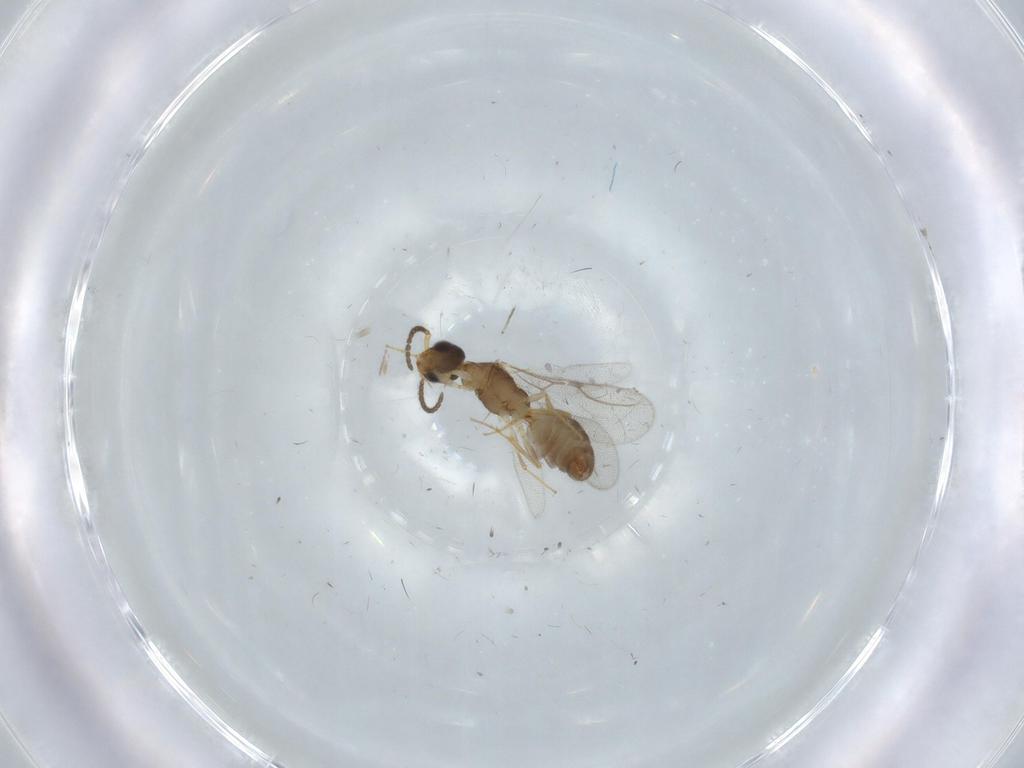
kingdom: Animalia
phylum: Arthropoda
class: Insecta
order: Hymenoptera
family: Bethylidae
